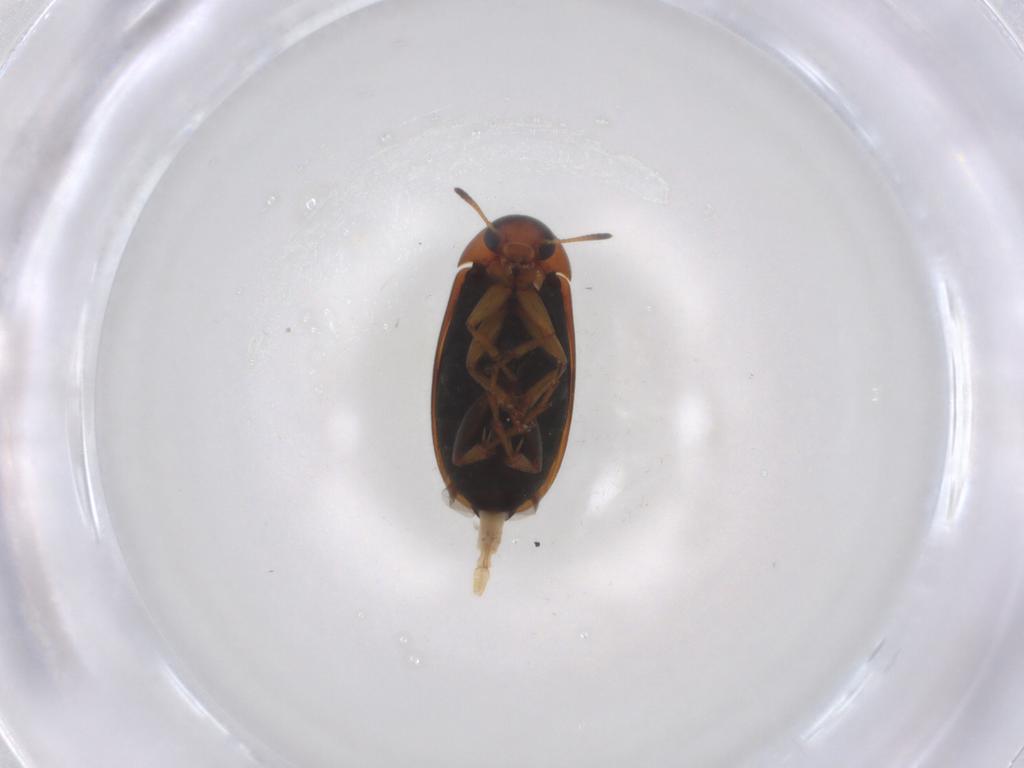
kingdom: Animalia
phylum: Arthropoda
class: Insecta
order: Coleoptera
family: Scraptiidae
